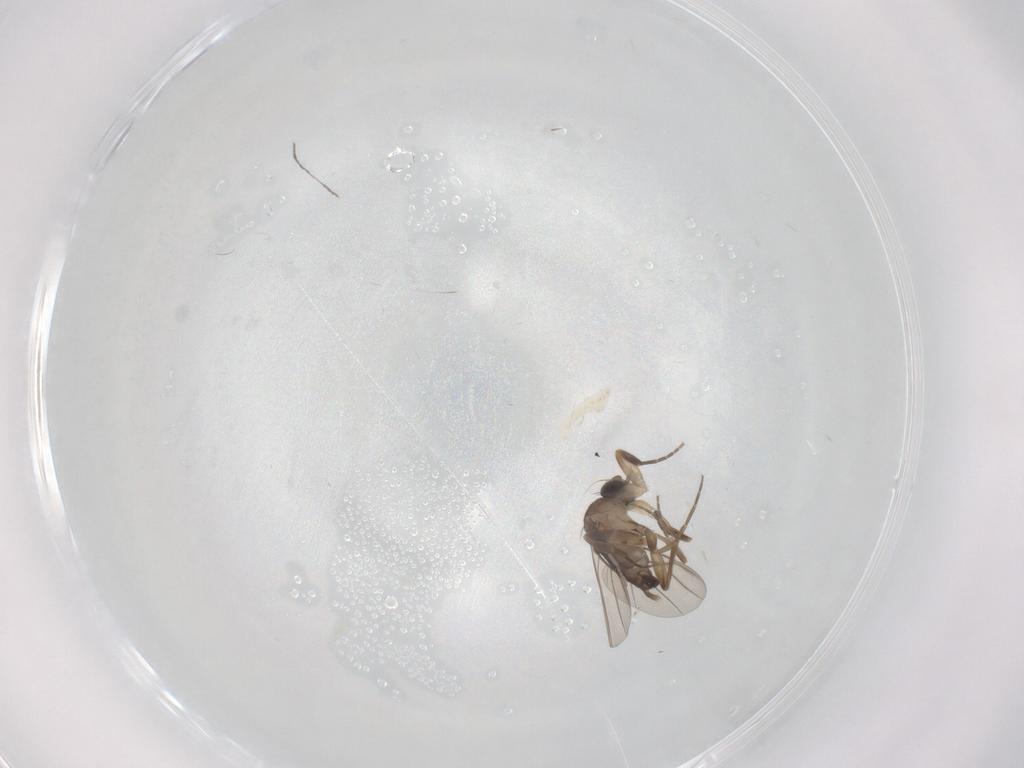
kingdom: Animalia
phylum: Arthropoda
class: Insecta
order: Diptera
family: Phoridae
